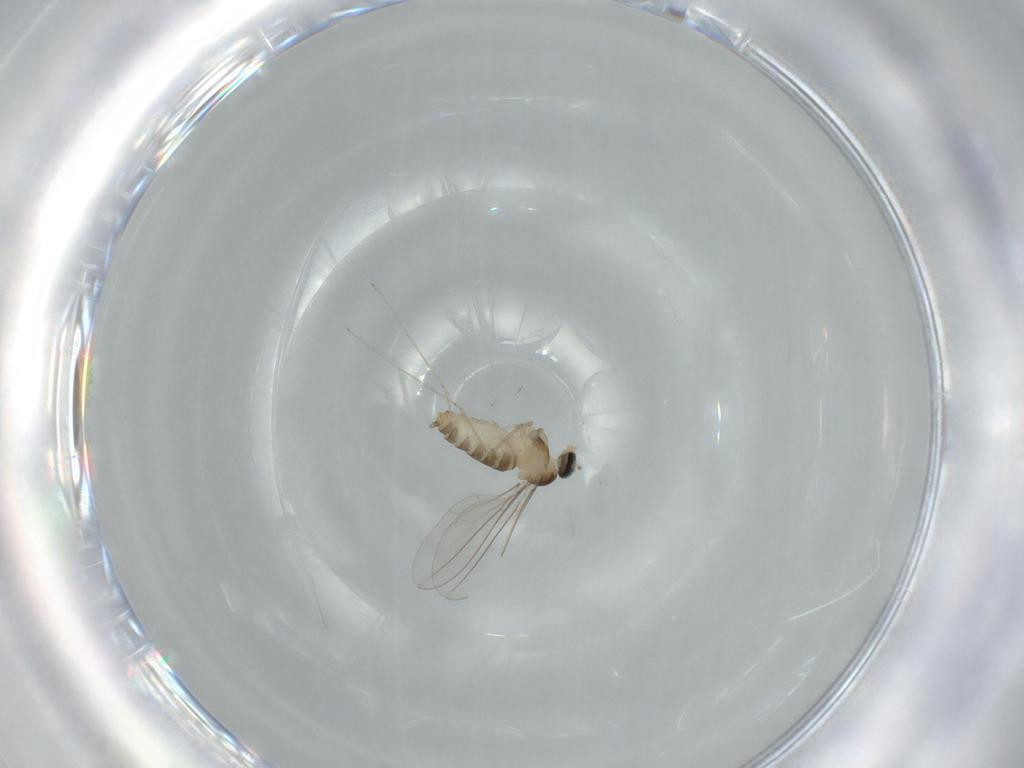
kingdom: Animalia
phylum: Arthropoda
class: Insecta
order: Diptera
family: Cecidomyiidae
